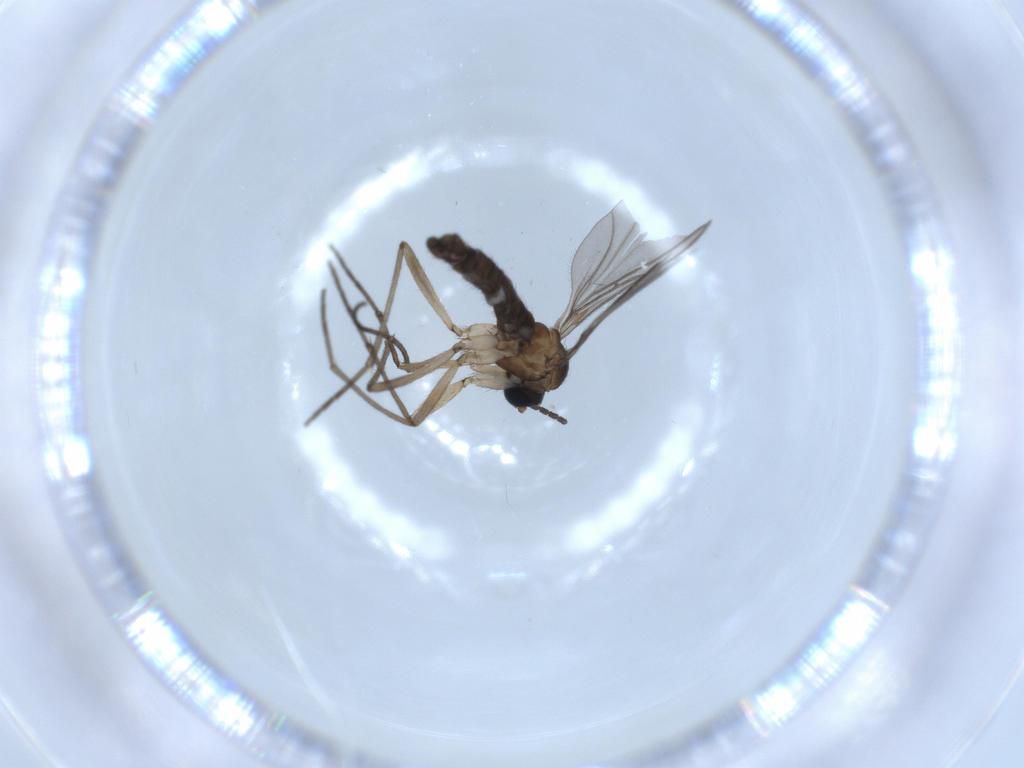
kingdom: Animalia
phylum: Arthropoda
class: Insecta
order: Diptera
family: Sciaridae
